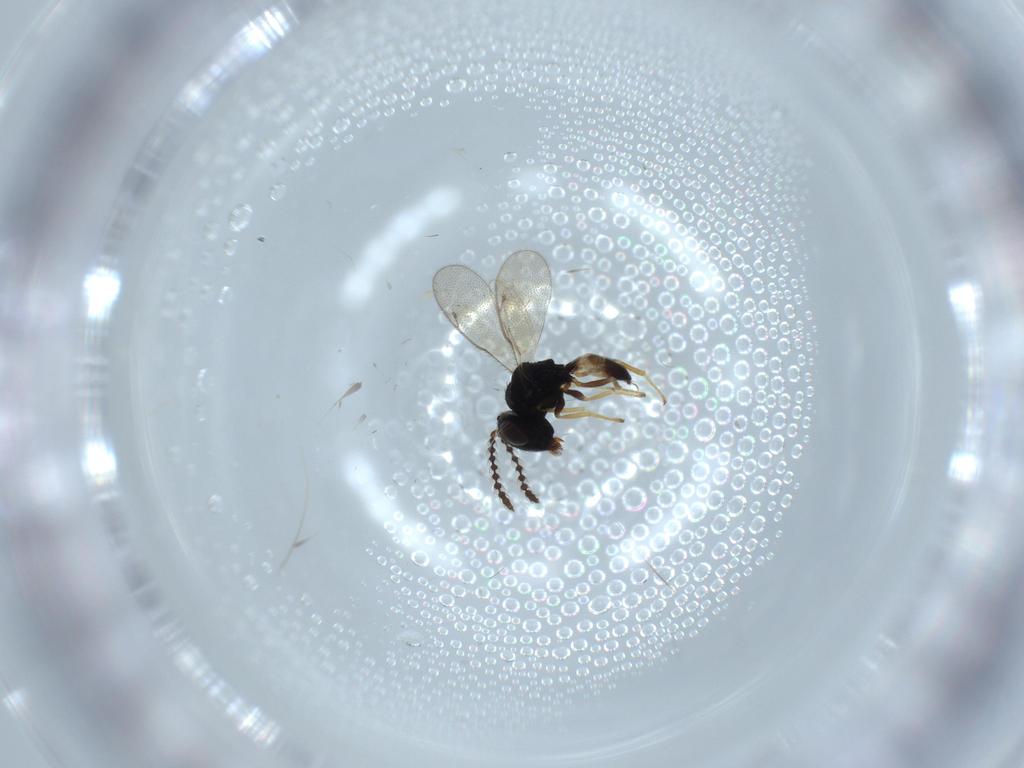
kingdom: Animalia
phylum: Arthropoda
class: Insecta
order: Hymenoptera
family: Pteromalidae
